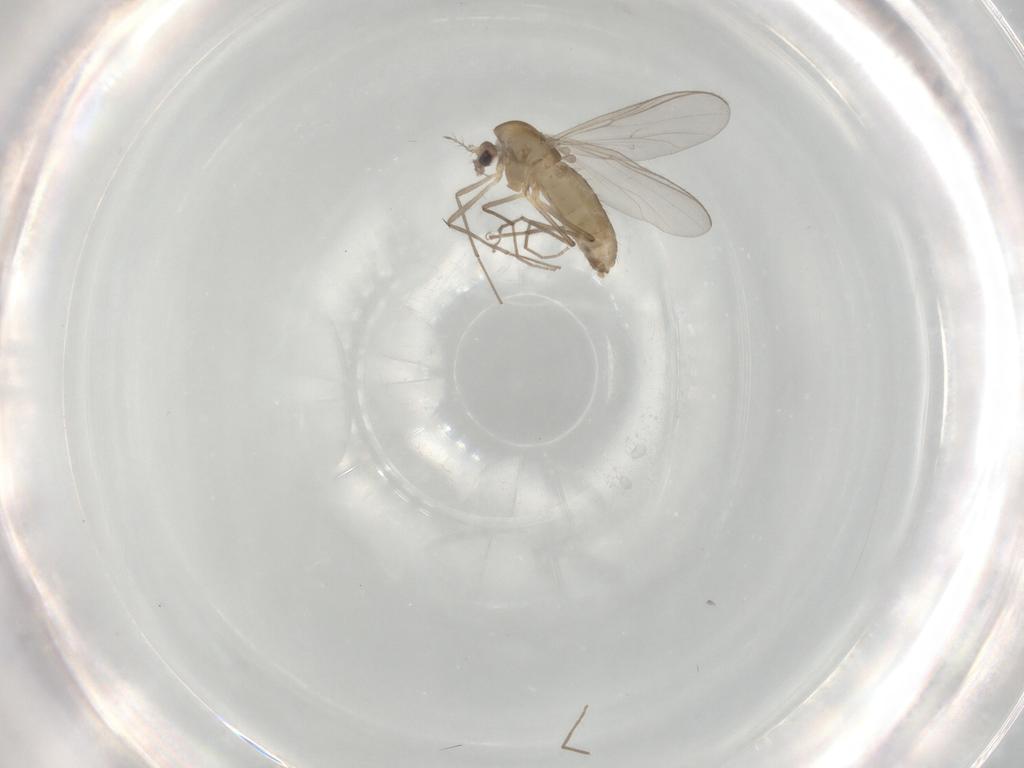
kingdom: Animalia
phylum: Arthropoda
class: Insecta
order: Diptera
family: Chironomidae
